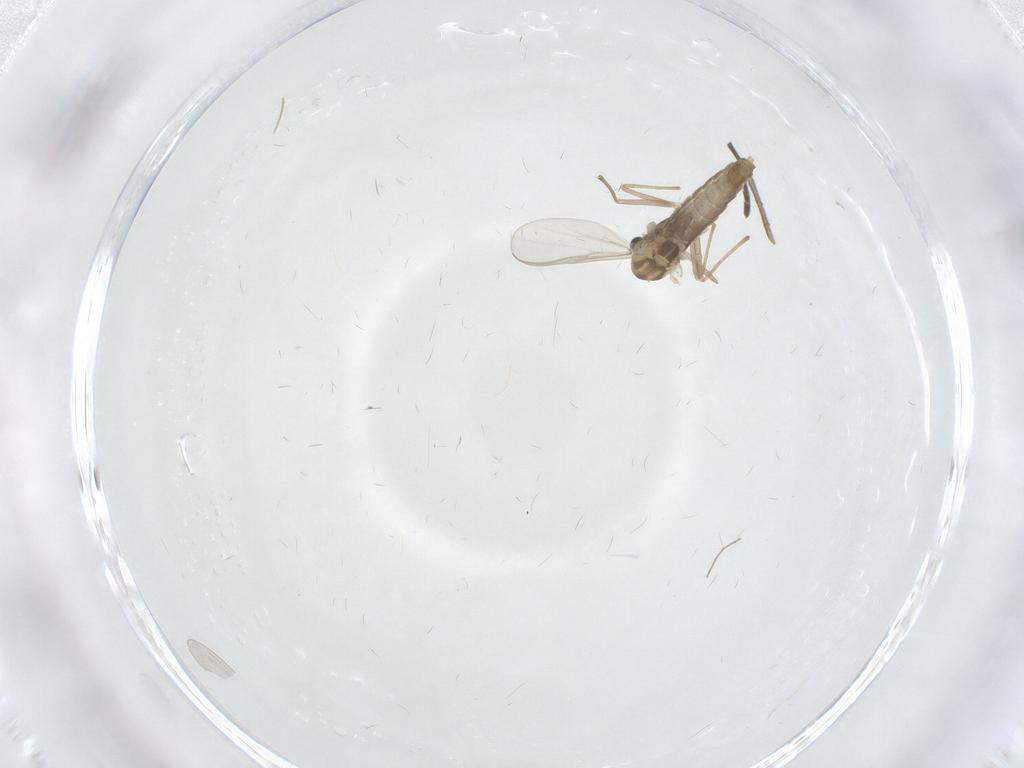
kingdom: Animalia
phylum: Arthropoda
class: Insecta
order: Diptera
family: Chironomidae
